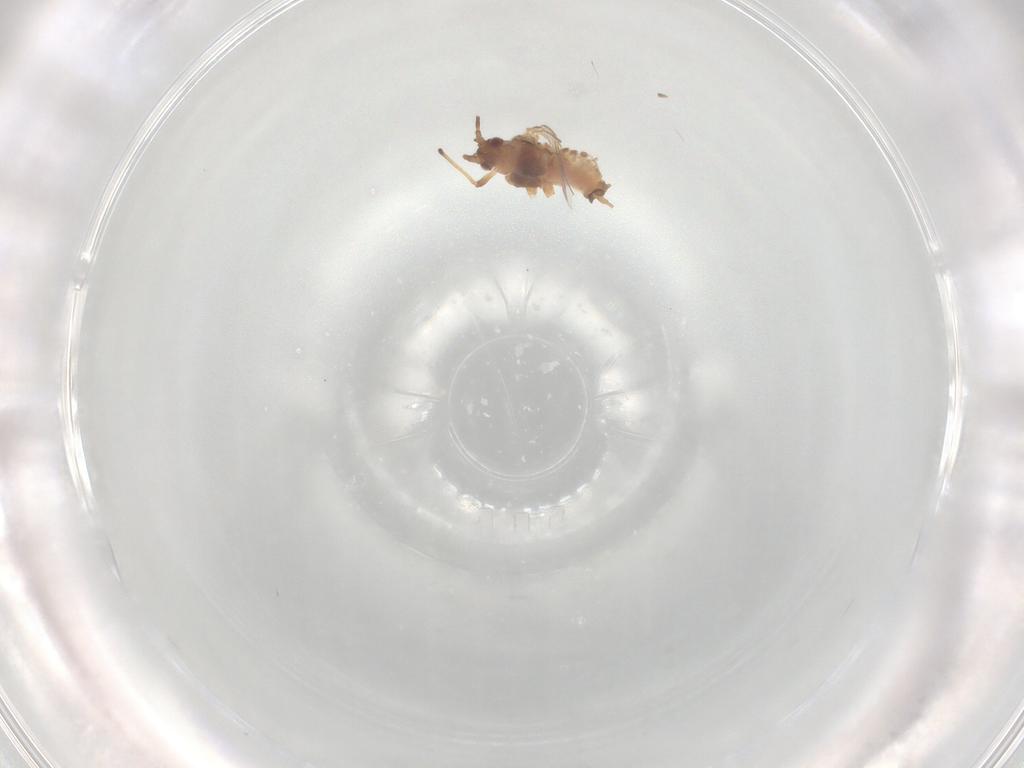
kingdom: Animalia
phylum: Arthropoda
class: Insecta
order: Hemiptera
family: Aphididae
